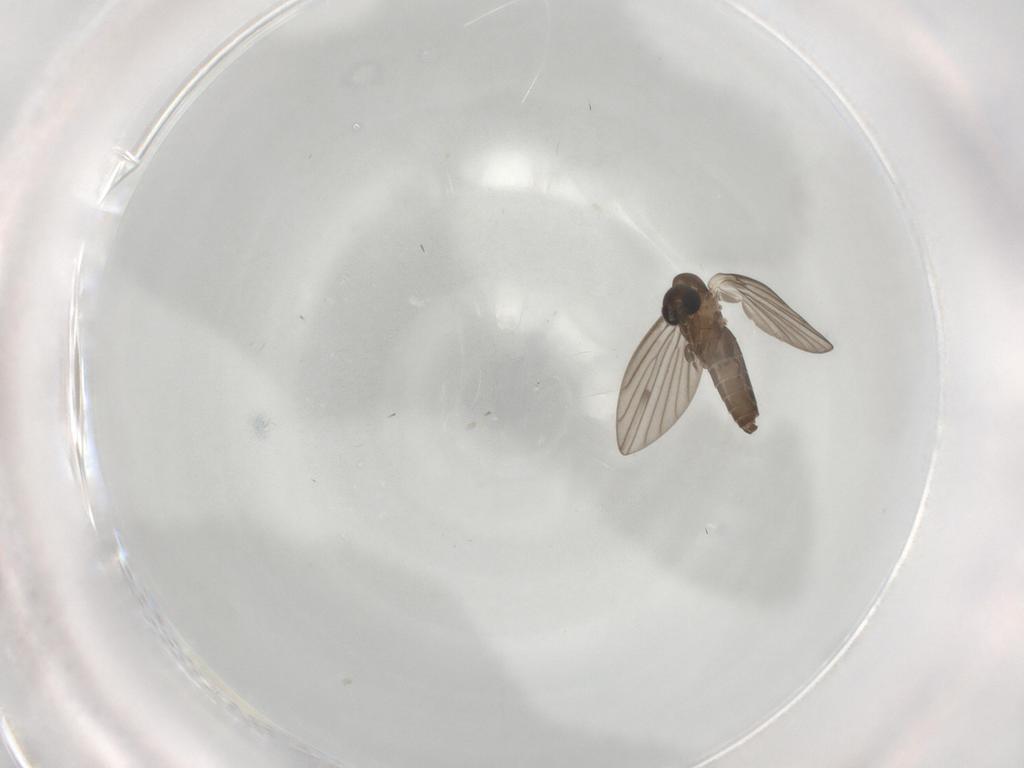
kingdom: Animalia
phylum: Arthropoda
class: Insecta
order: Diptera
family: Psychodidae
